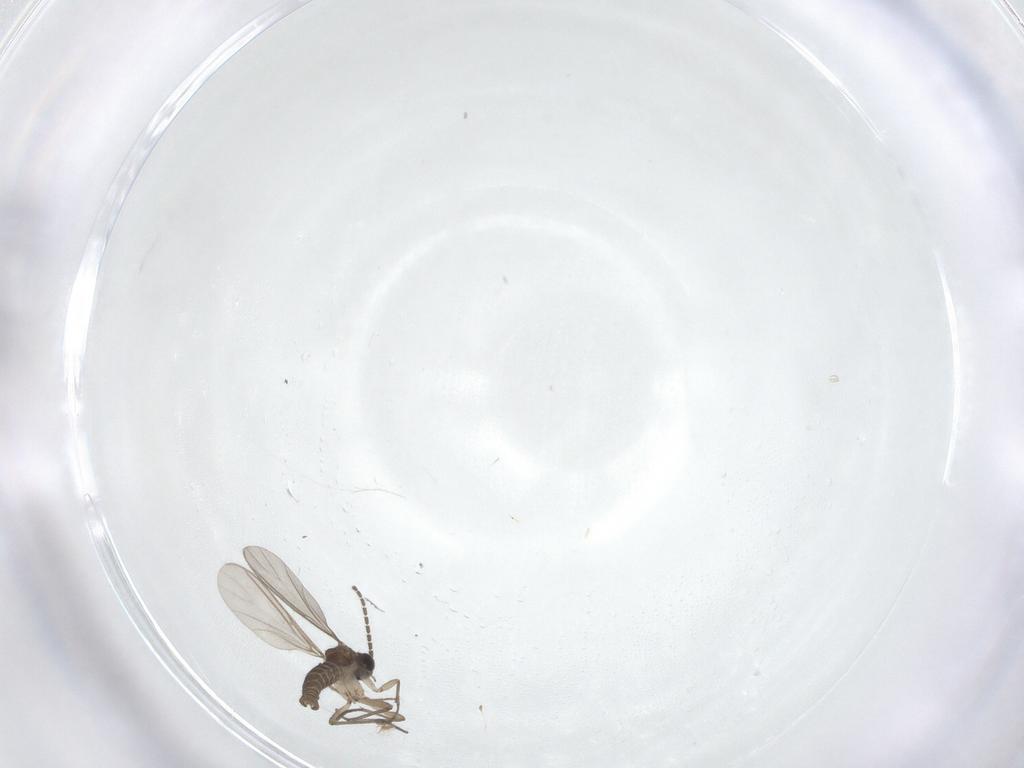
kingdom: Animalia
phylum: Arthropoda
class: Insecta
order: Diptera
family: Sciaridae
